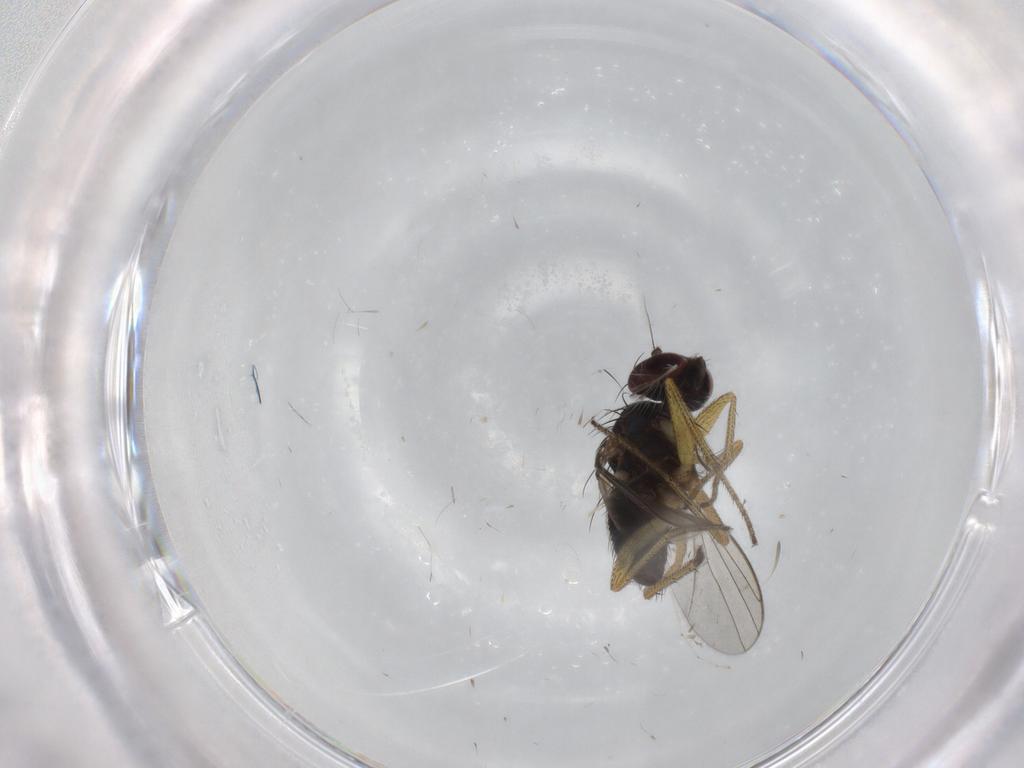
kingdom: Animalia
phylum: Arthropoda
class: Insecta
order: Diptera
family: Dolichopodidae
